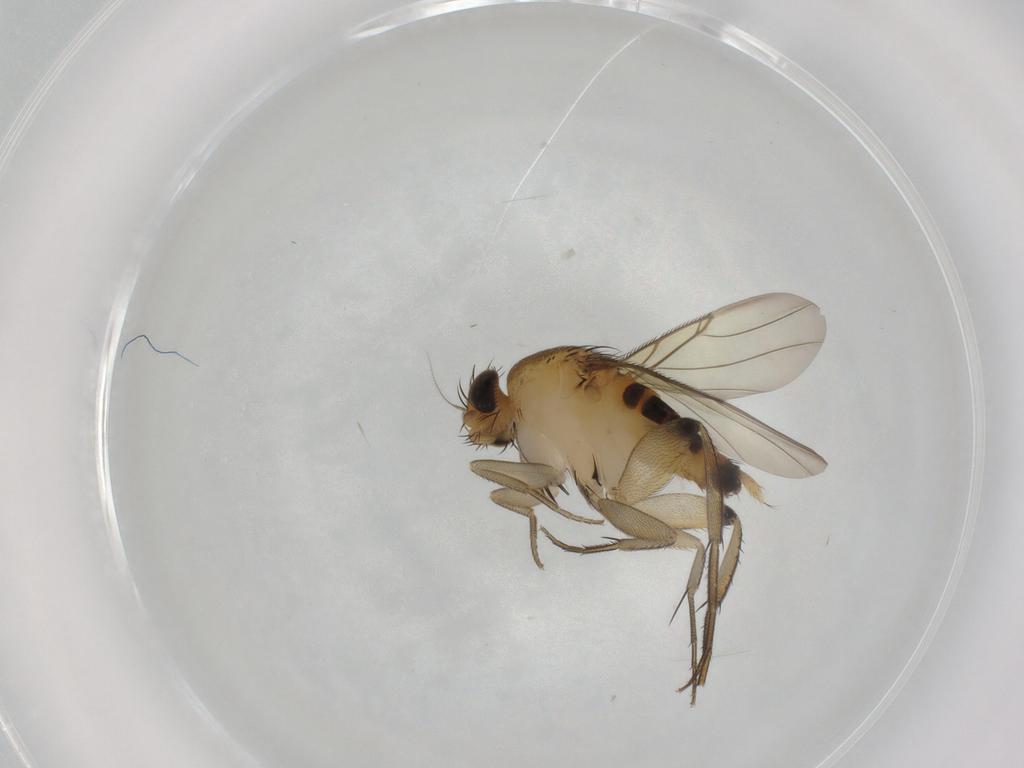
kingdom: Animalia
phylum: Arthropoda
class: Insecta
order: Diptera
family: Phoridae
